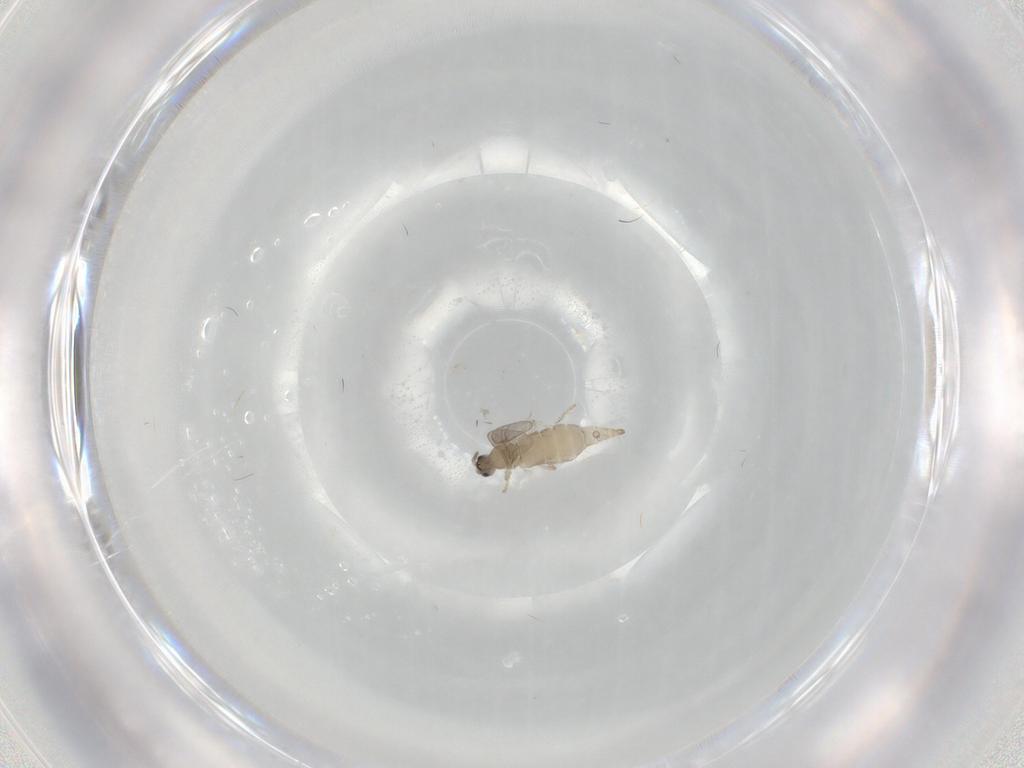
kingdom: Animalia
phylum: Arthropoda
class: Insecta
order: Diptera
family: Cecidomyiidae
